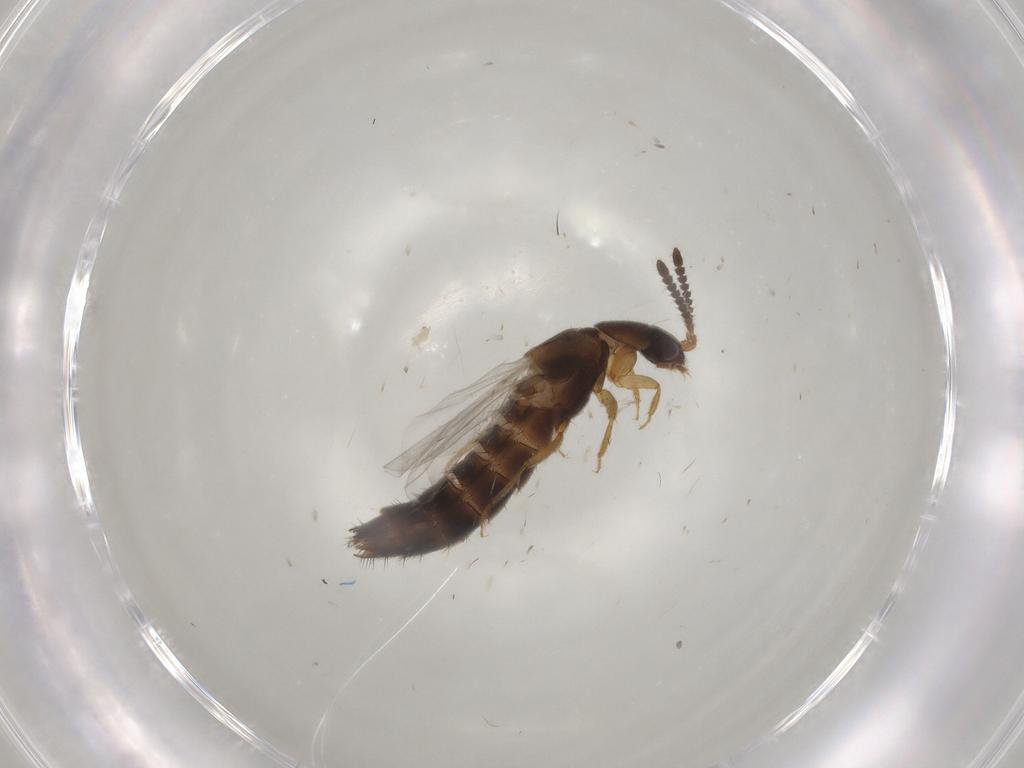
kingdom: Animalia
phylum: Arthropoda
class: Insecta
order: Coleoptera
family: Staphylinidae
